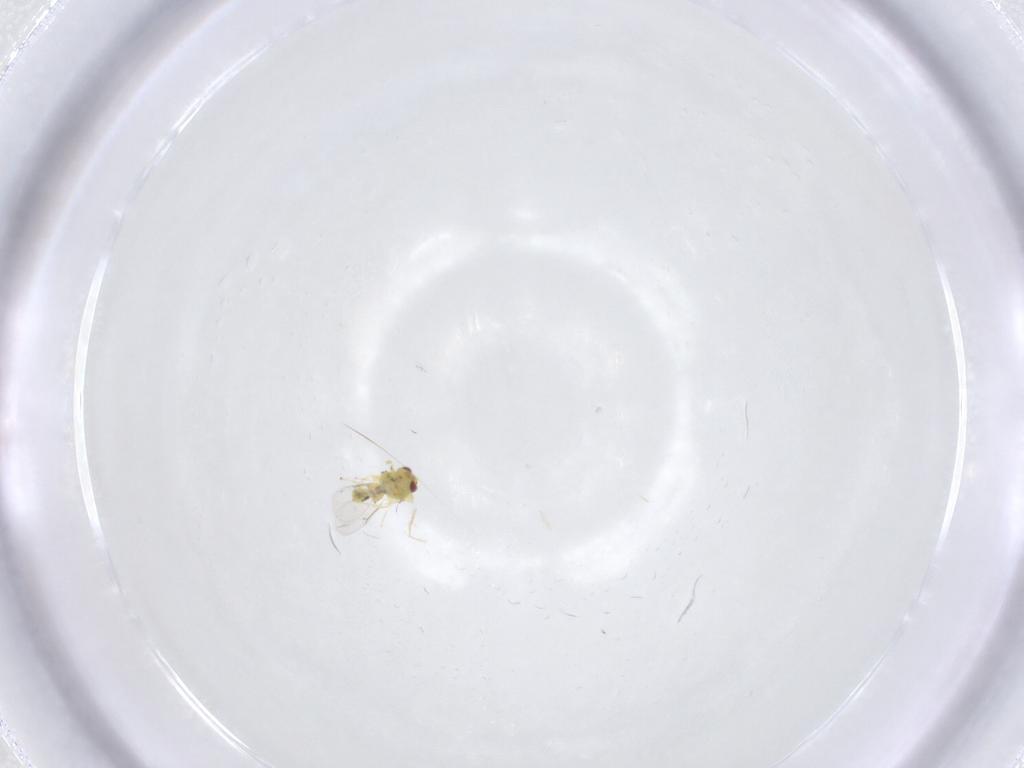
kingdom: Animalia
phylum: Arthropoda
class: Insecta
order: Hymenoptera
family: Eulophidae
